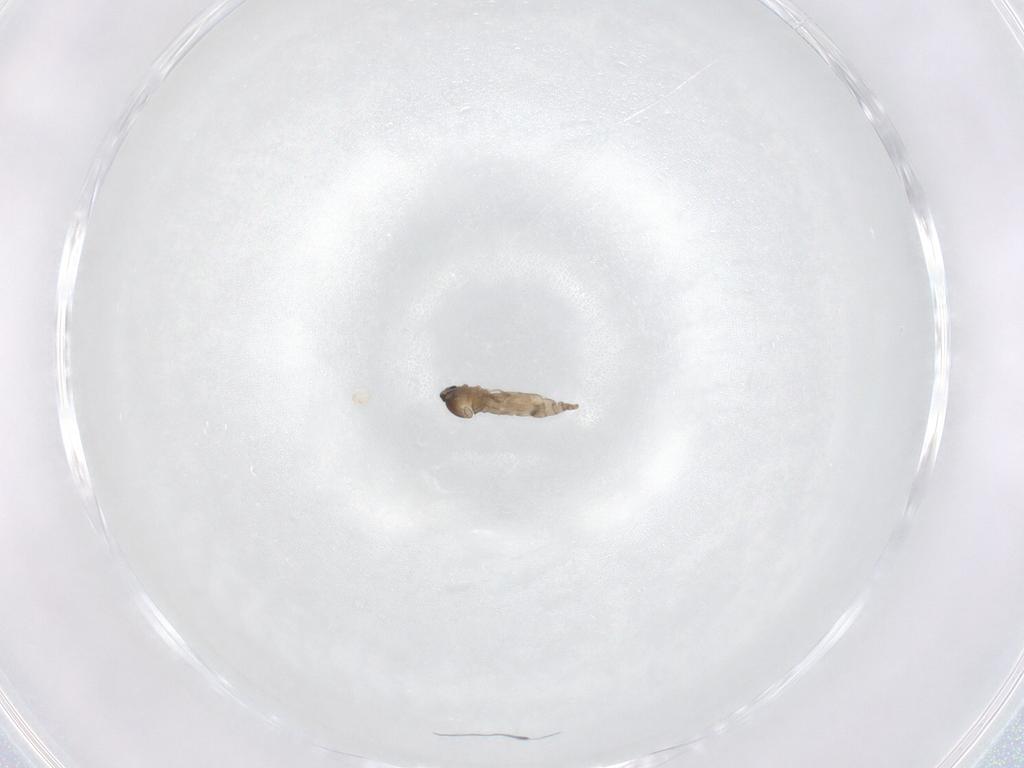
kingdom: Animalia
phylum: Arthropoda
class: Insecta
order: Diptera
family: Cecidomyiidae
